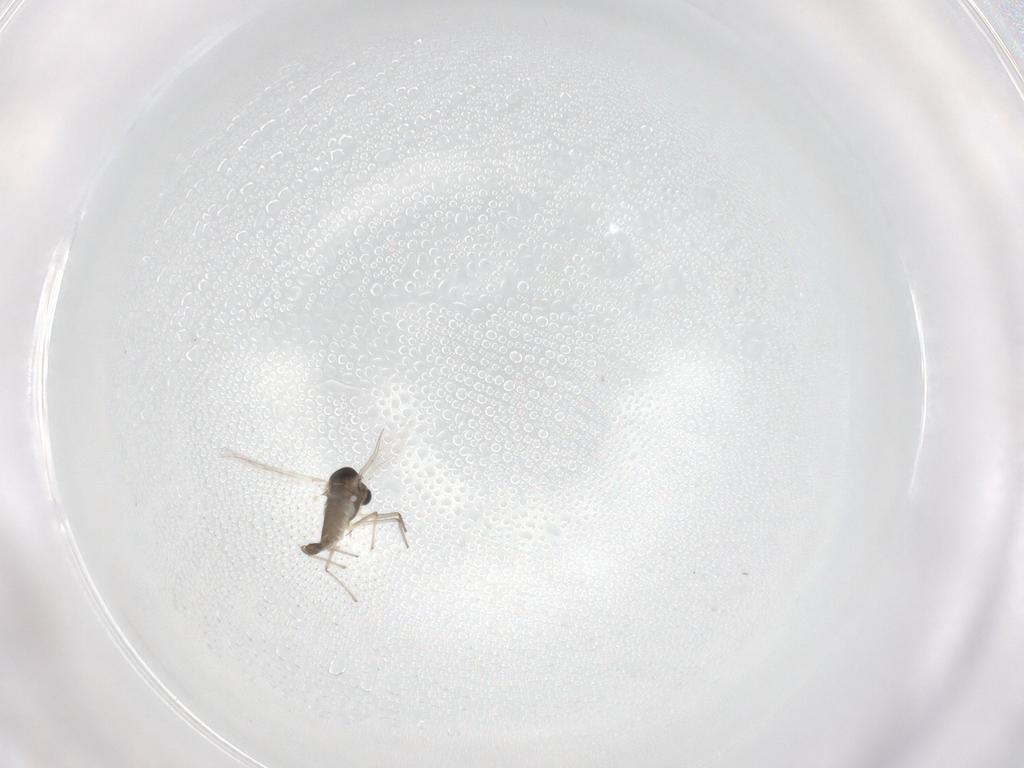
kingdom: Animalia
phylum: Arthropoda
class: Insecta
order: Diptera
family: Chironomidae
